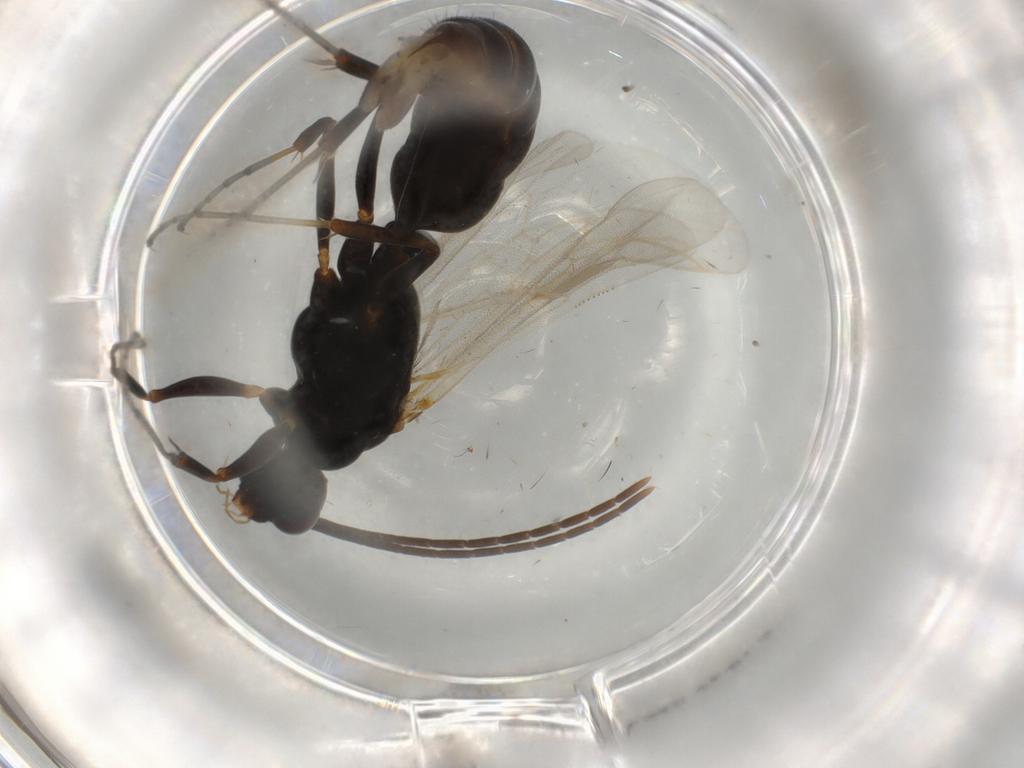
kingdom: Animalia
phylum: Arthropoda
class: Insecta
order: Hymenoptera
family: Formicidae
